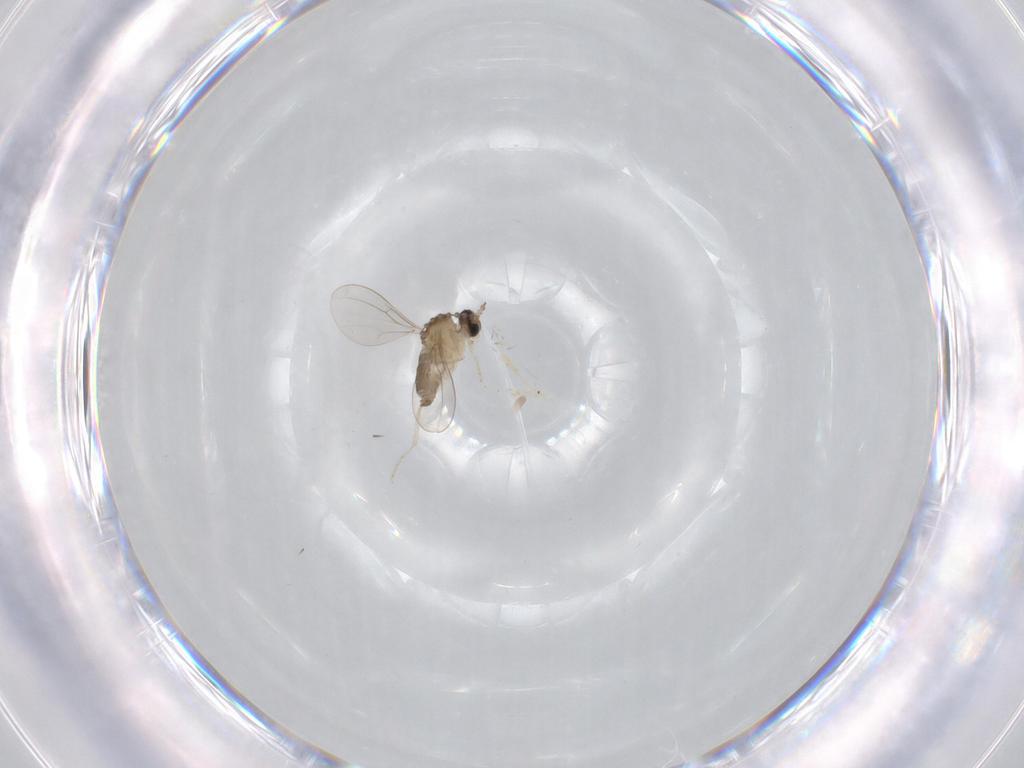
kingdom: Animalia
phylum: Arthropoda
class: Insecta
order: Diptera
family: Cecidomyiidae
